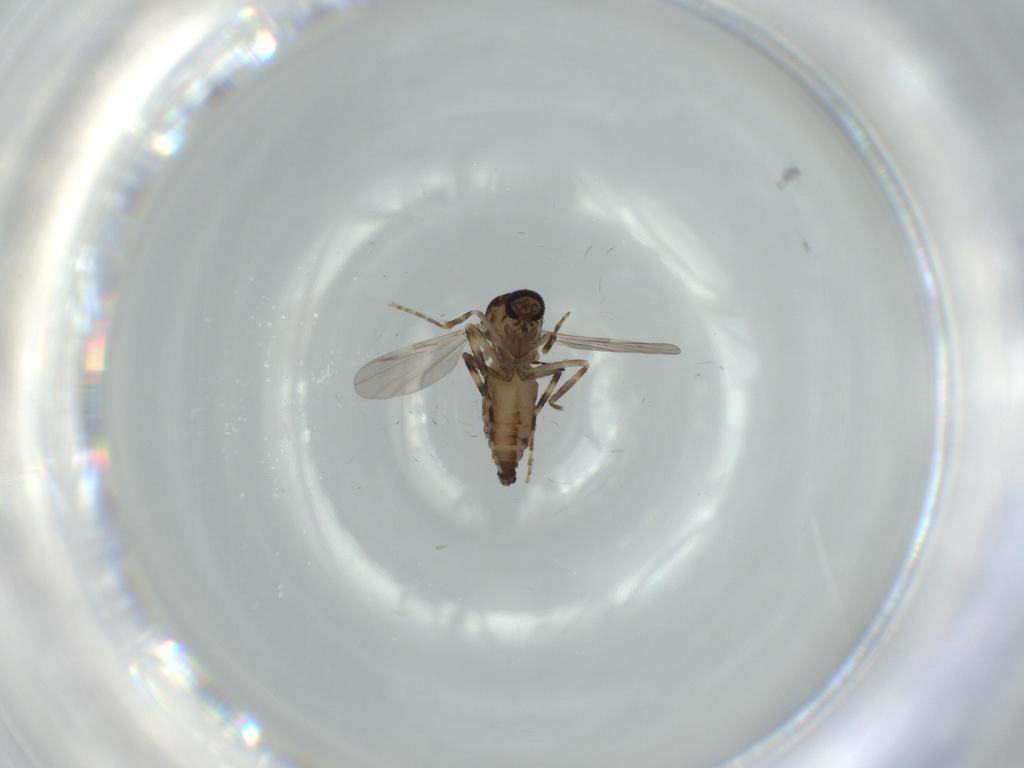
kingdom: Animalia
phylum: Arthropoda
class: Insecta
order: Diptera
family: Ceratopogonidae
